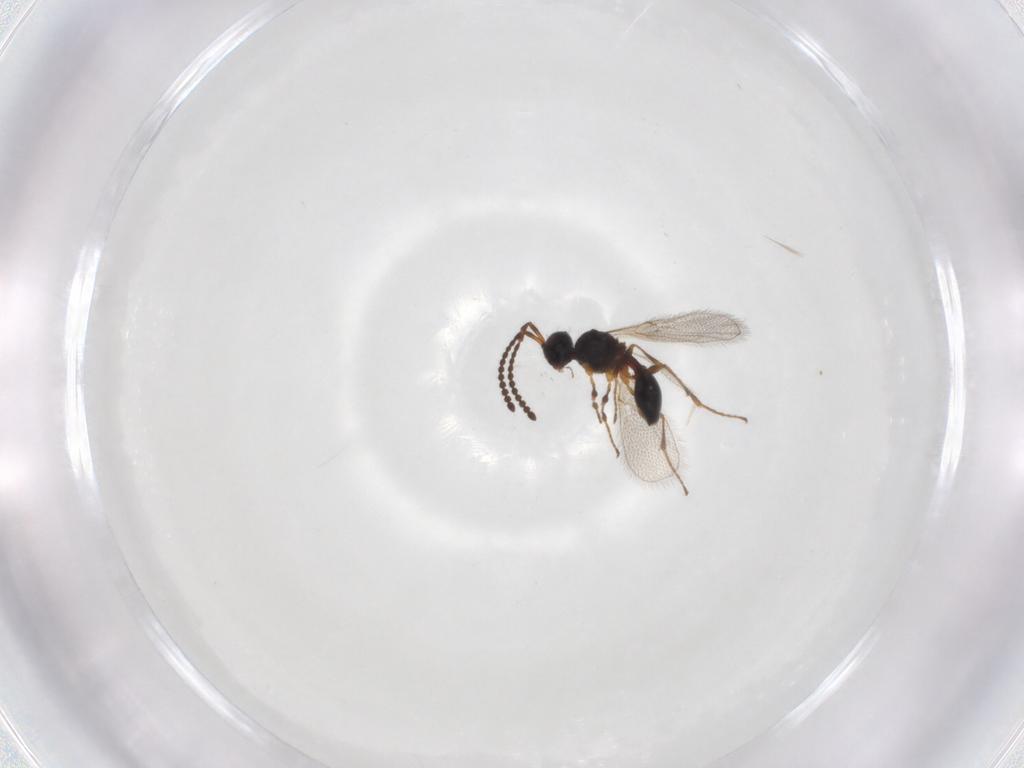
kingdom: Animalia
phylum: Arthropoda
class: Insecta
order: Hymenoptera
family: Diapriidae
